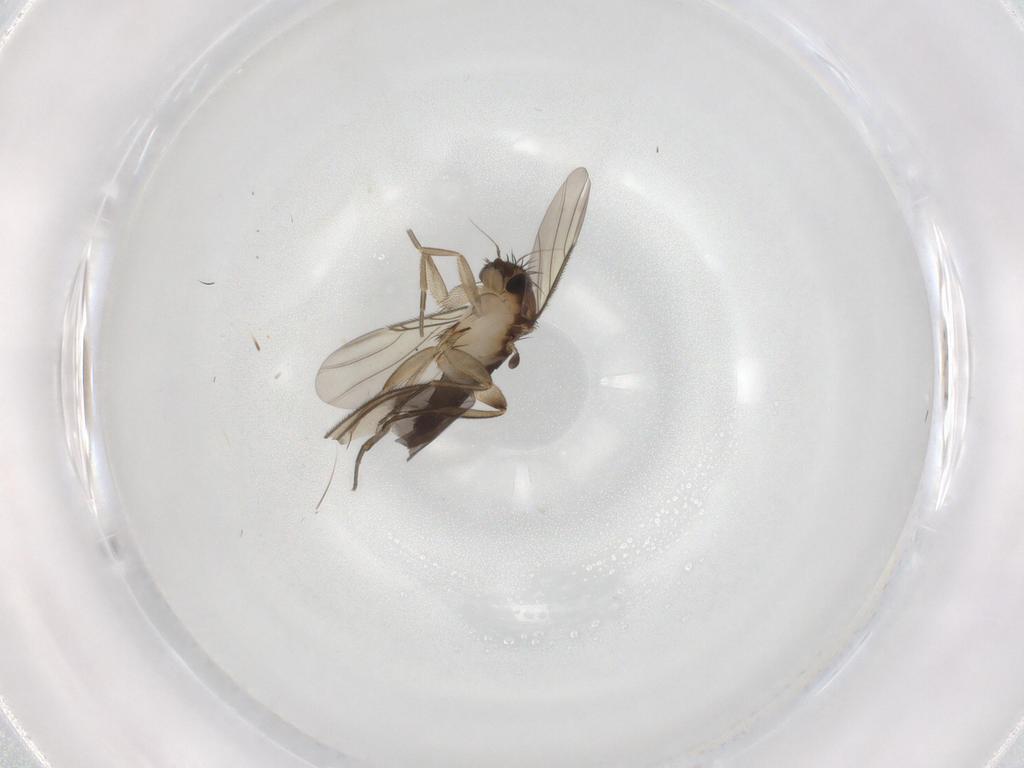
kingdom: Animalia
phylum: Arthropoda
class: Insecta
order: Diptera
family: Phoridae
